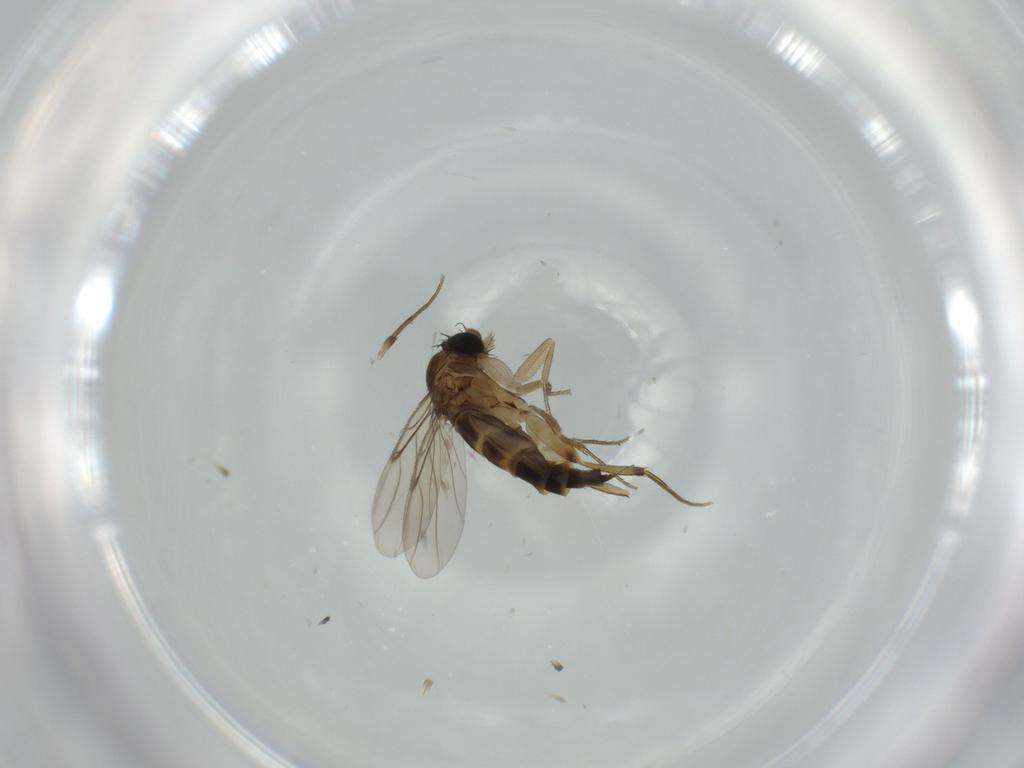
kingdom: Animalia
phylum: Arthropoda
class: Insecta
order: Diptera
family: Phoridae
